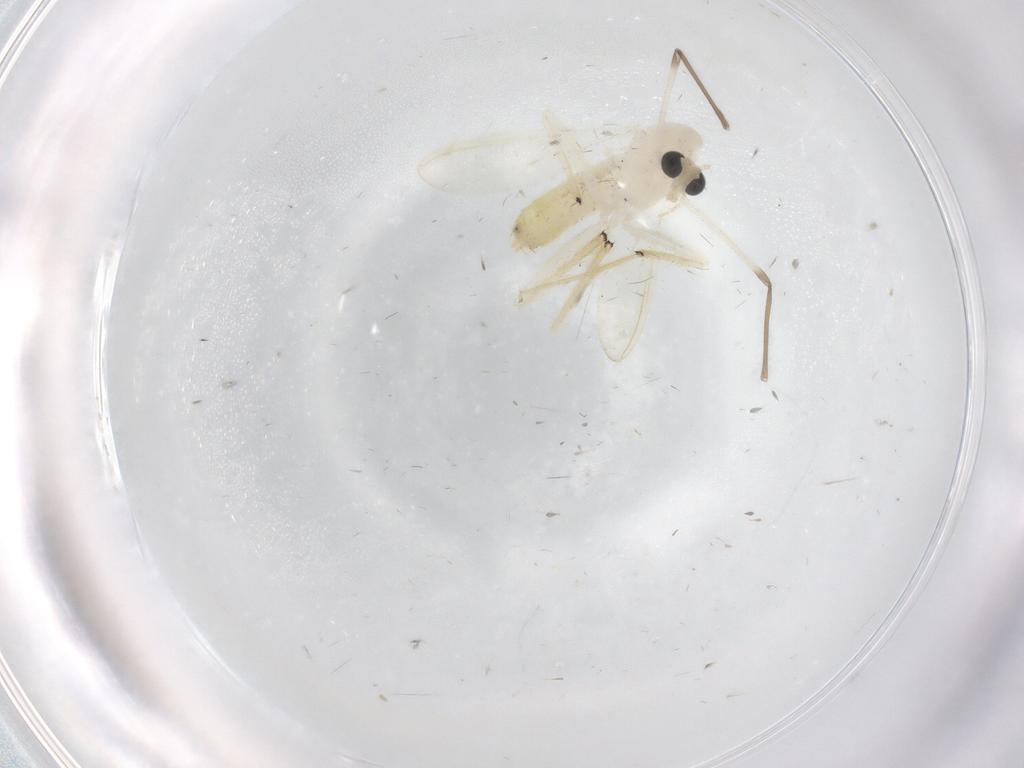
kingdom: Animalia
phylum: Arthropoda
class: Insecta
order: Diptera
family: Chironomidae
